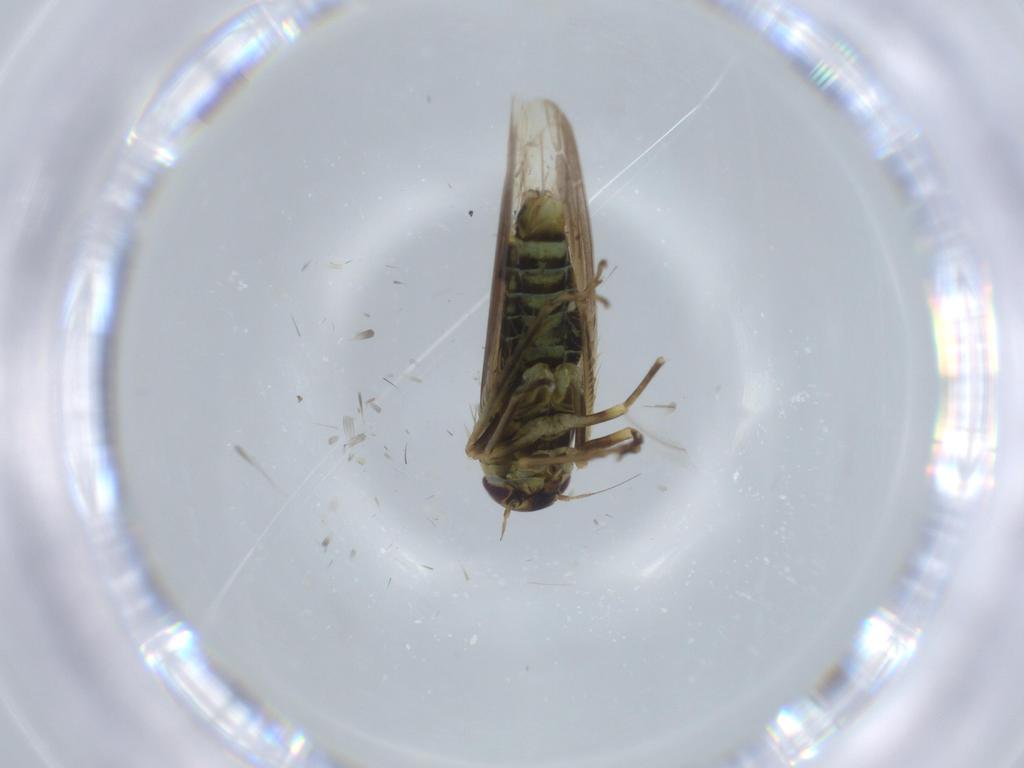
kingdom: Animalia
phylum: Arthropoda
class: Insecta
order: Hemiptera
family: Cicadellidae
